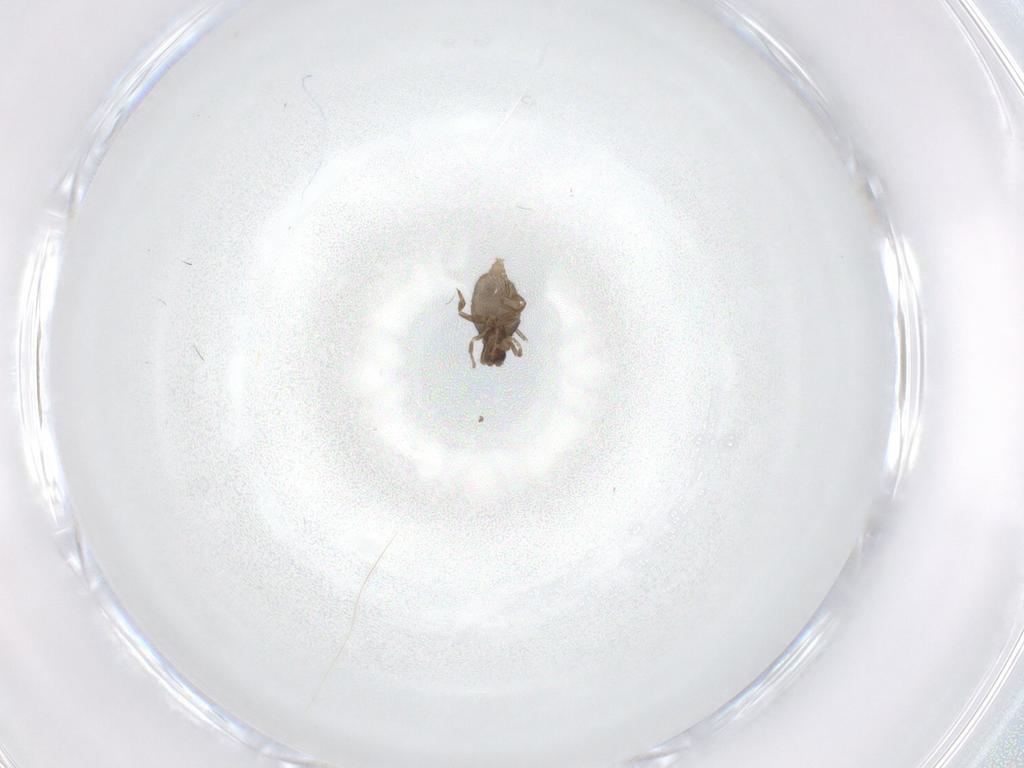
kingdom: Animalia
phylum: Arthropoda
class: Insecta
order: Diptera
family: Phoridae
